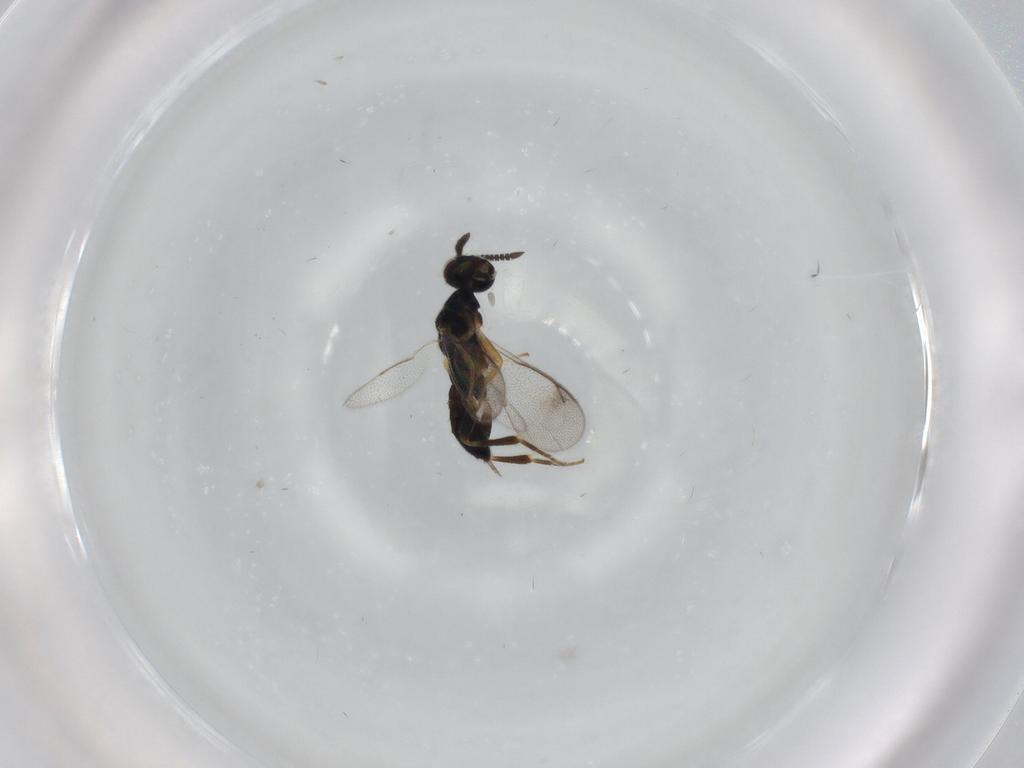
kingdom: Animalia
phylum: Arthropoda
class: Insecta
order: Hymenoptera
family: Cleonyminae
